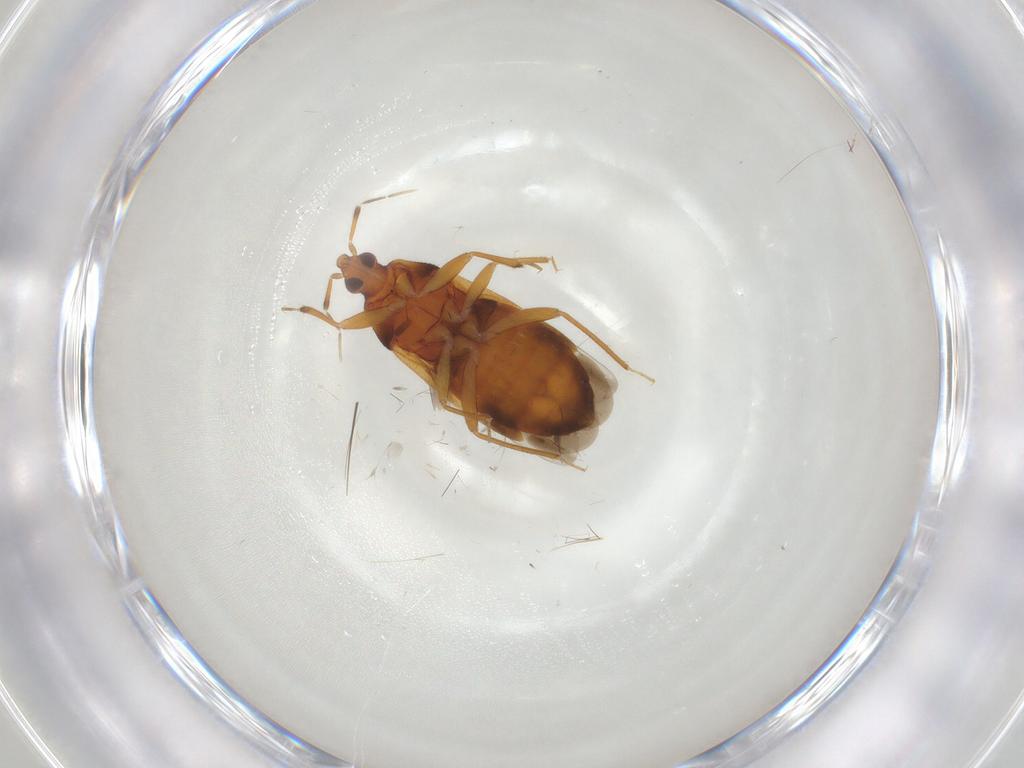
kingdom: Animalia
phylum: Arthropoda
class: Insecta
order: Hemiptera
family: Anthocoridae
